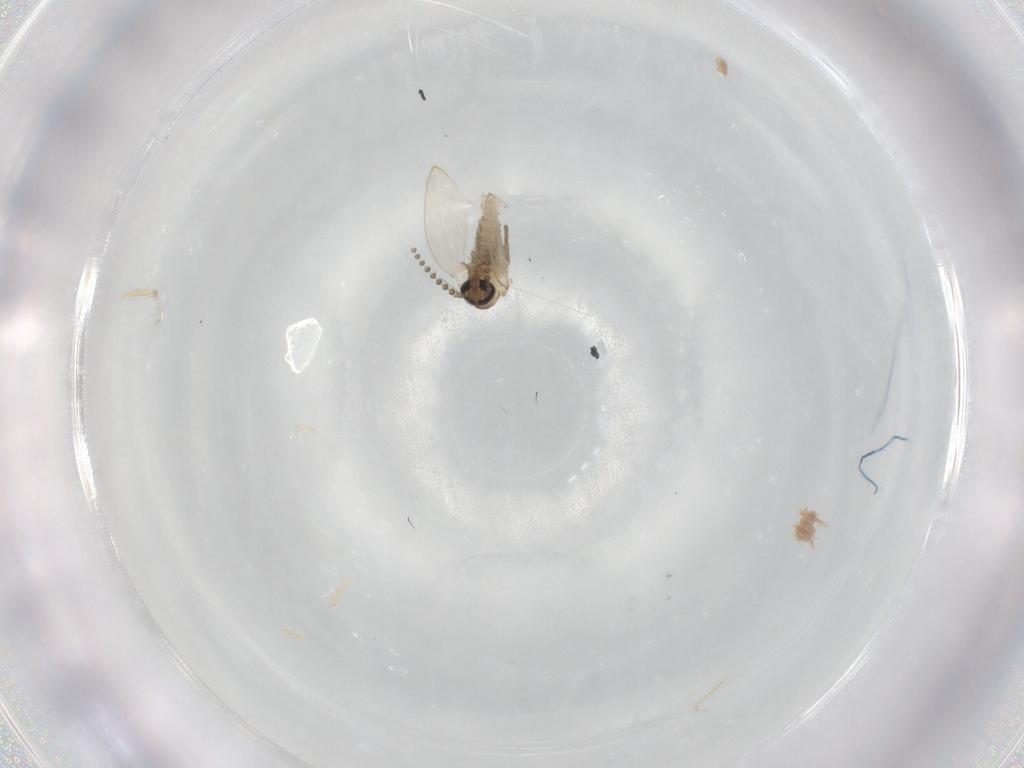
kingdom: Animalia
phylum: Arthropoda
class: Insecta
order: Diptera
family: Psychodidae
